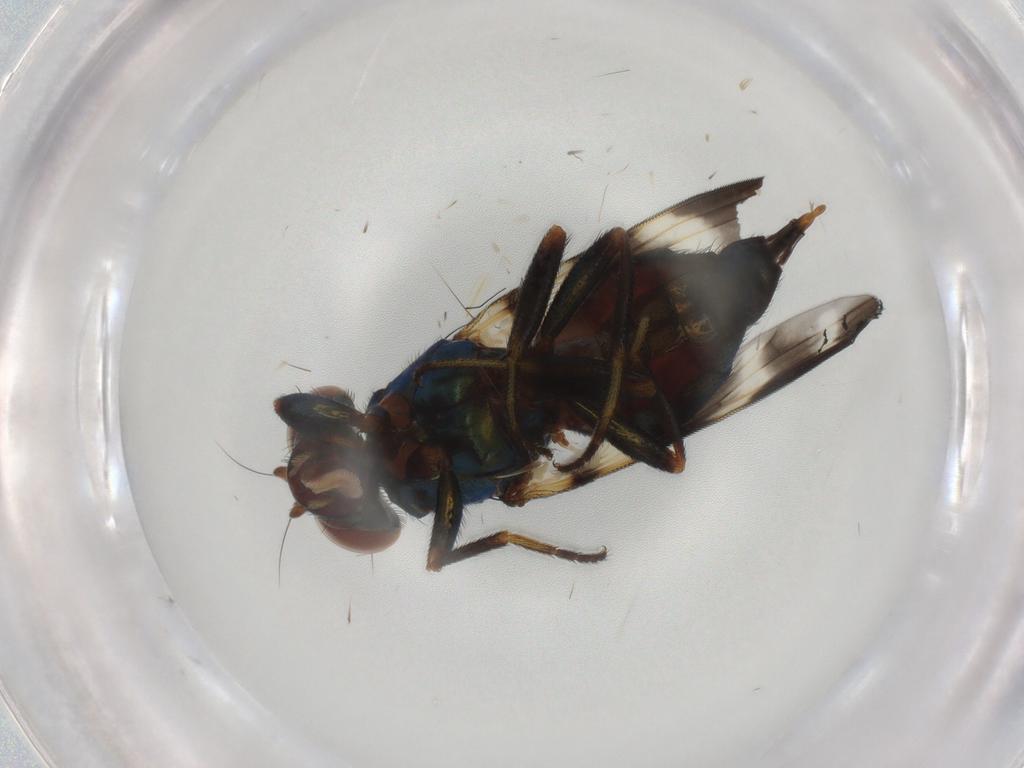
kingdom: Animalia
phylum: Arthropoda
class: Insecta
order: Diptera
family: Ulidiidae
